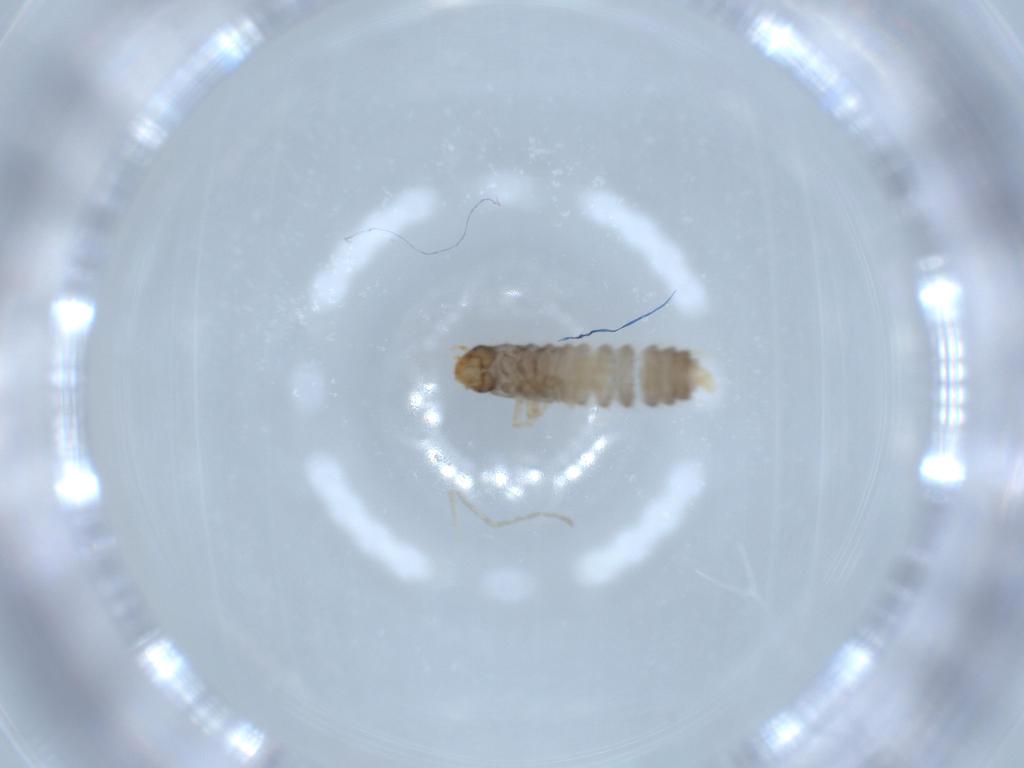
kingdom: Animalia
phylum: Arthropoda
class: Insecta
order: Coleoptera
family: Staphylinidae
